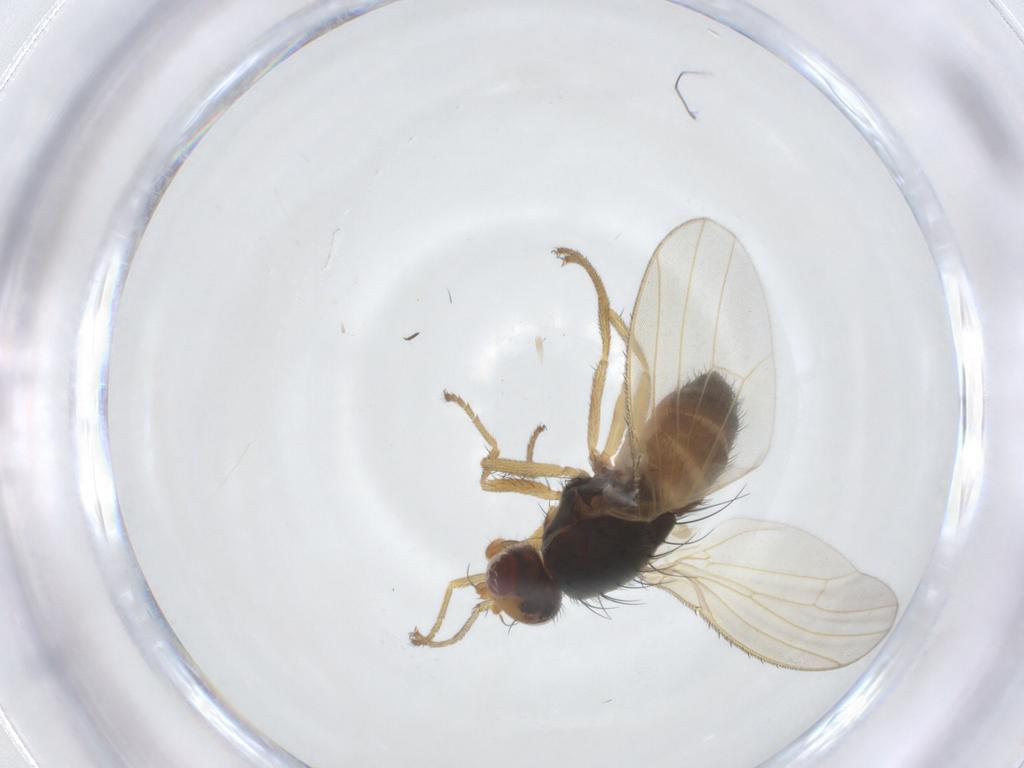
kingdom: Animalia
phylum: Arthropoda
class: Insecta
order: Diptera
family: Heleomyzidae
